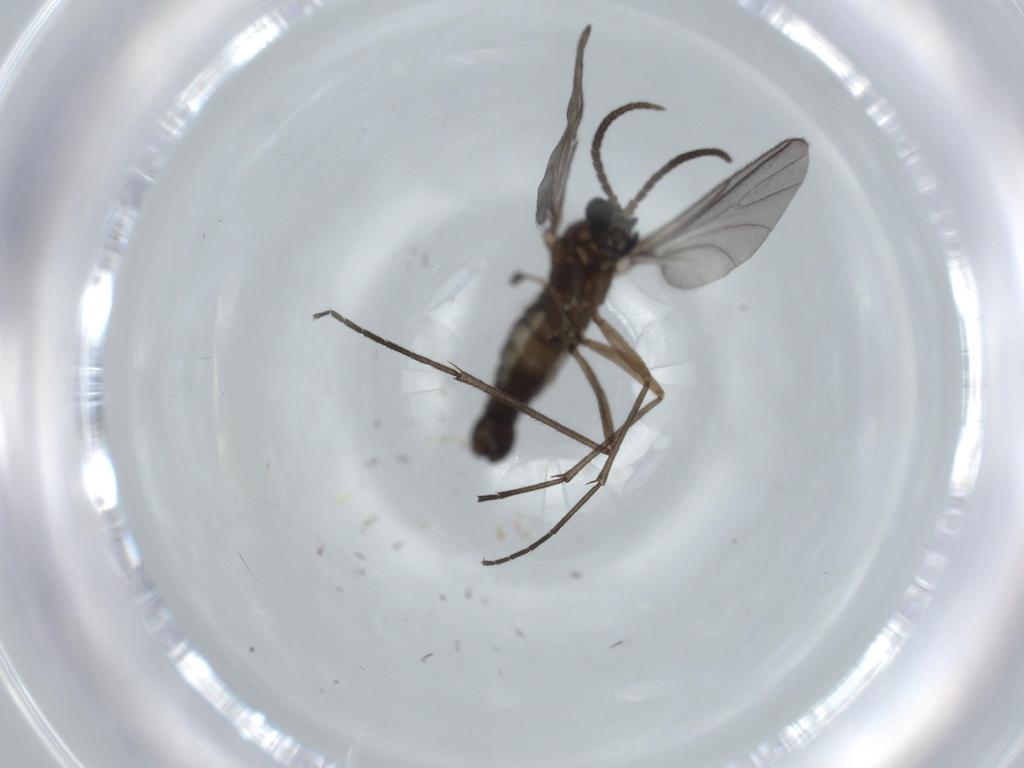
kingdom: Animalia
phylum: Arthropoda
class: Insecta
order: Diptera
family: Sciaridae
